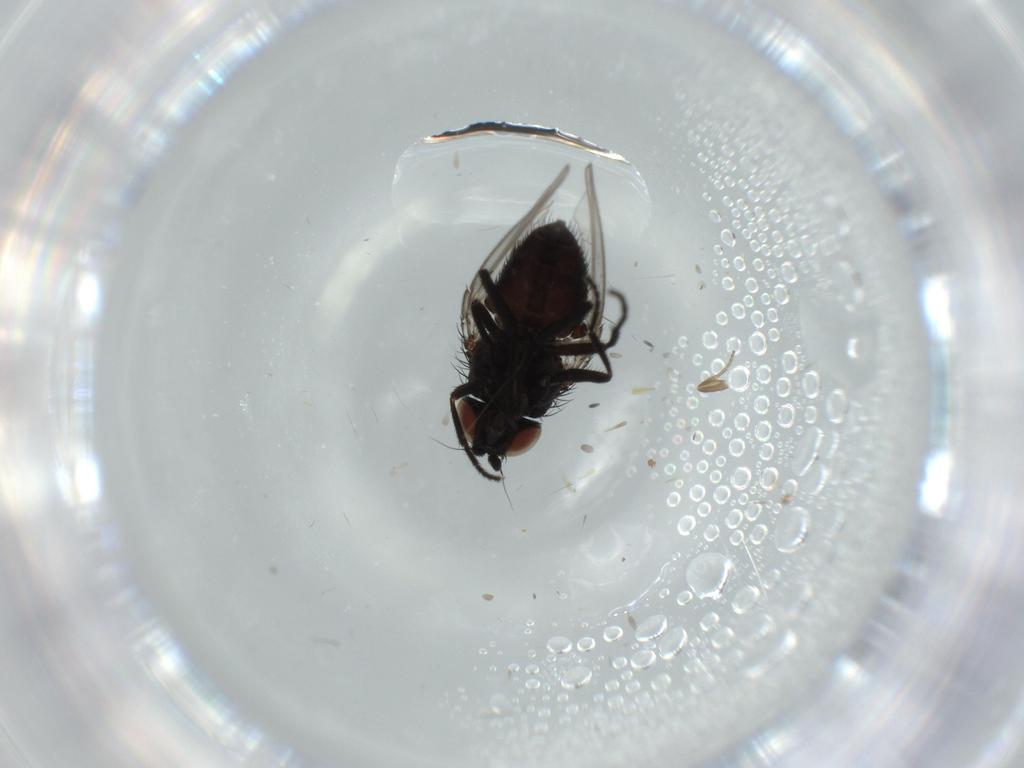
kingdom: Animalia
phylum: Arthropoda
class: Insecta
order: Diptera
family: Milichiidae
